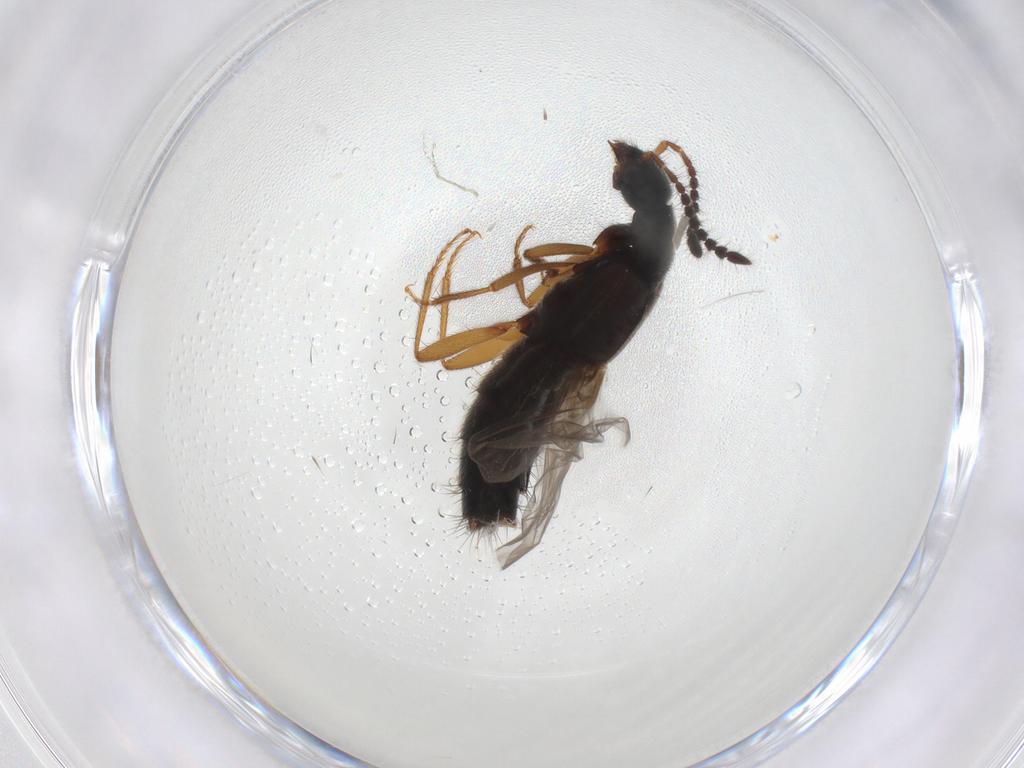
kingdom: Animalia
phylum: Arthropoda
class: Insecta
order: Coleoptera
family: Staphylinidae
